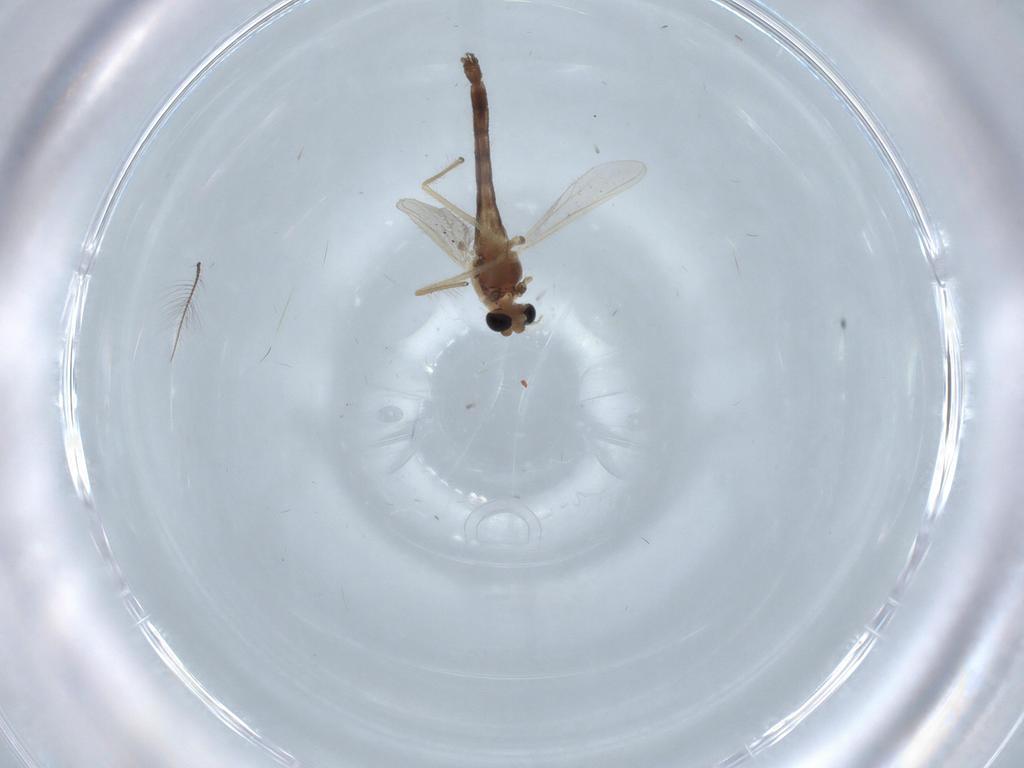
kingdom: Animalia
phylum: Arthropoda
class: Insecta
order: Diptera
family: Chironomidae
